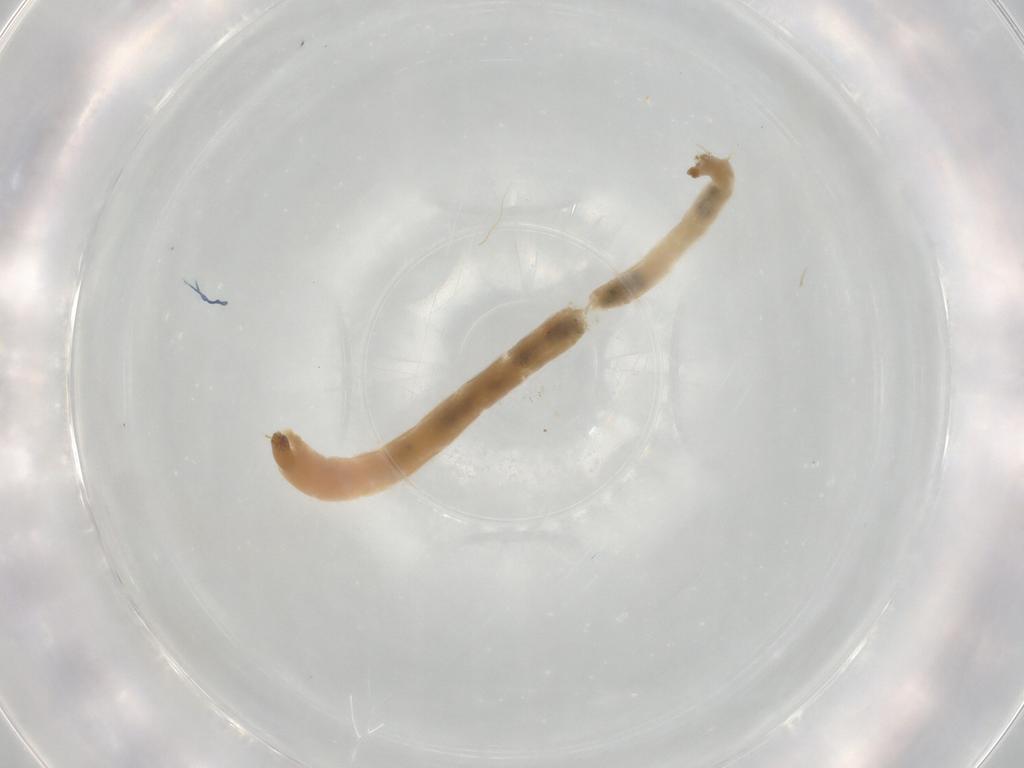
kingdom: Animalia
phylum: Arthropoda
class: Insecta
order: Diptera
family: Chironomidae
